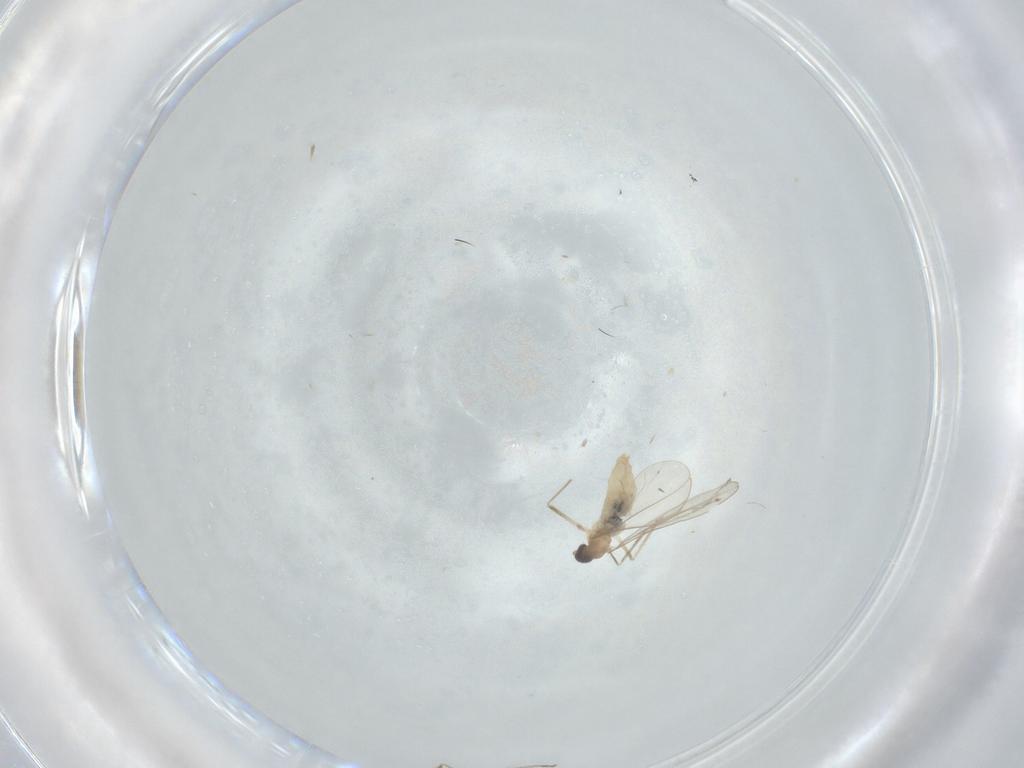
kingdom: Animalia
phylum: Arthropoda
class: Insecta
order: Diptera
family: Cecidomyiidae
